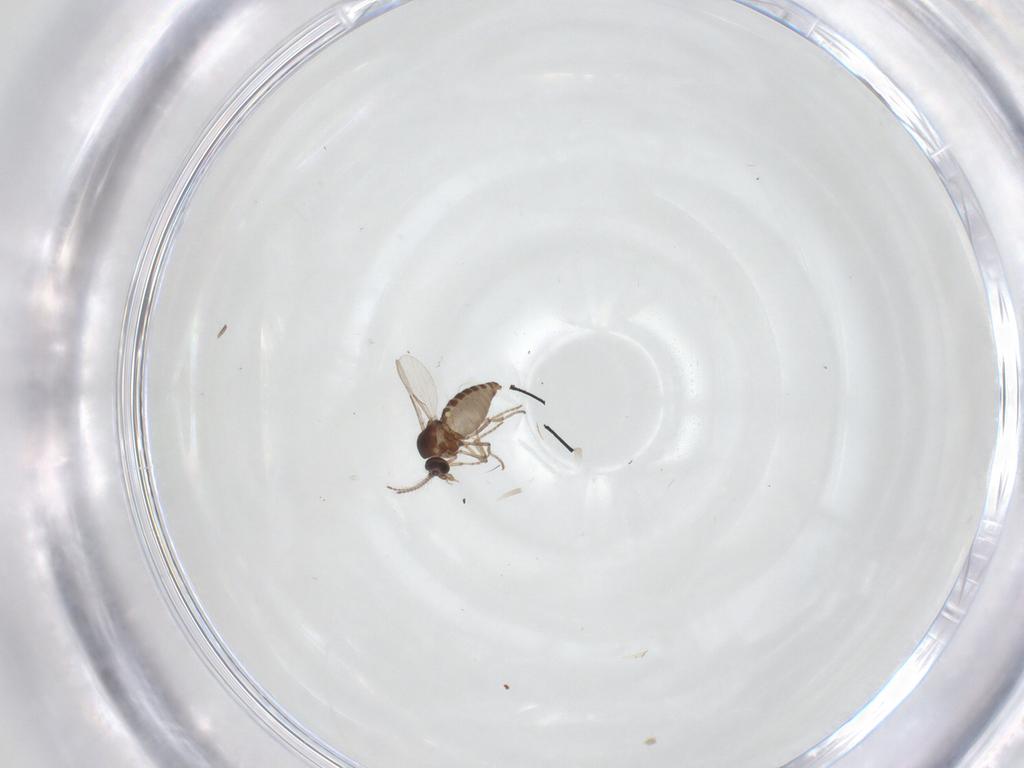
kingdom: Animalia
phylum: Arthropoda
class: Insecta
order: Diptera
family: Ceratopogonidae
